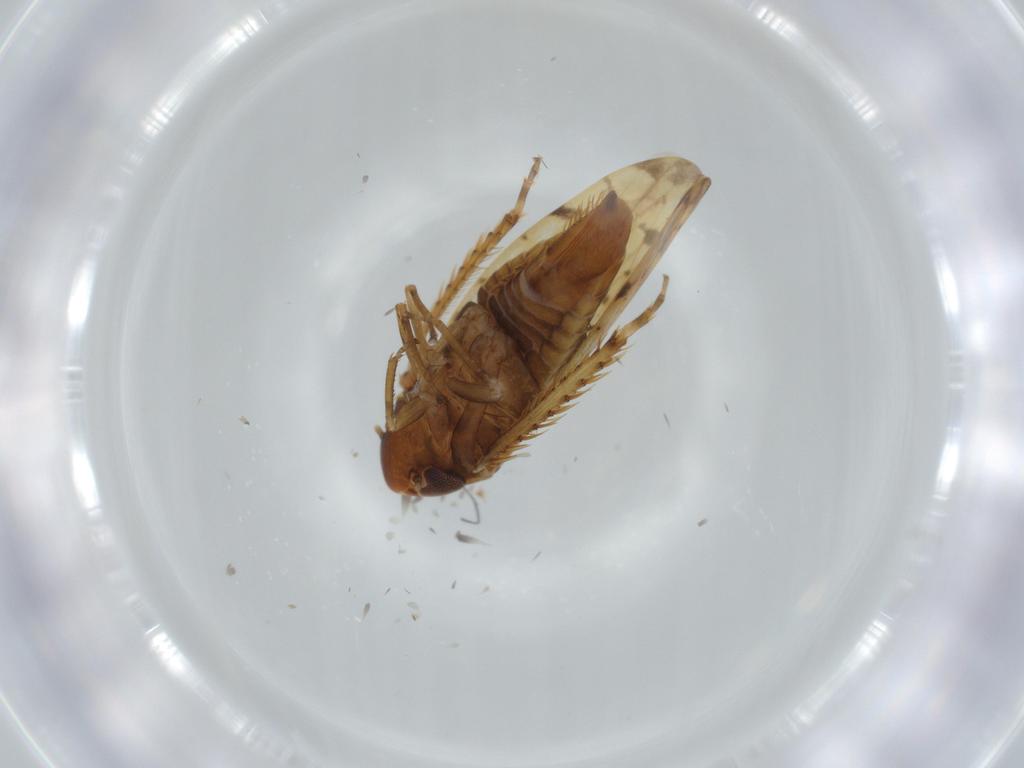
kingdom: Animalia
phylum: Arthropoda
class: Insecta
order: Hemiptera
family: Cicadellidae
